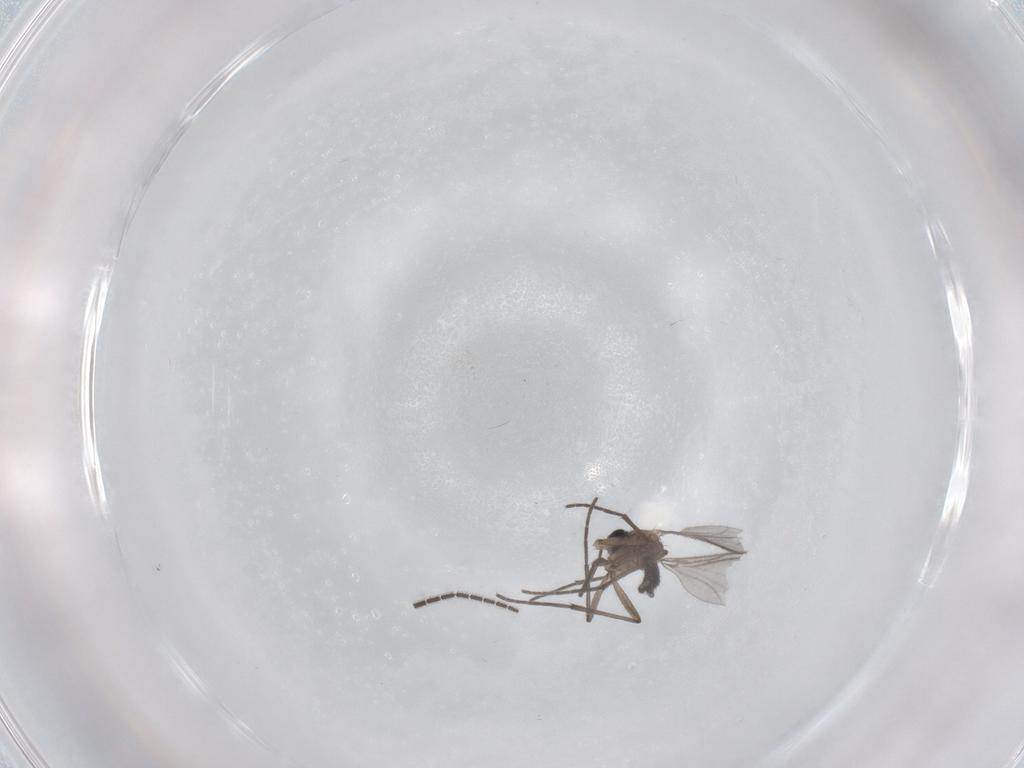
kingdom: Animalia
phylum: Arthropoda
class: Insecta
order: Diptera
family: Sciaridae
